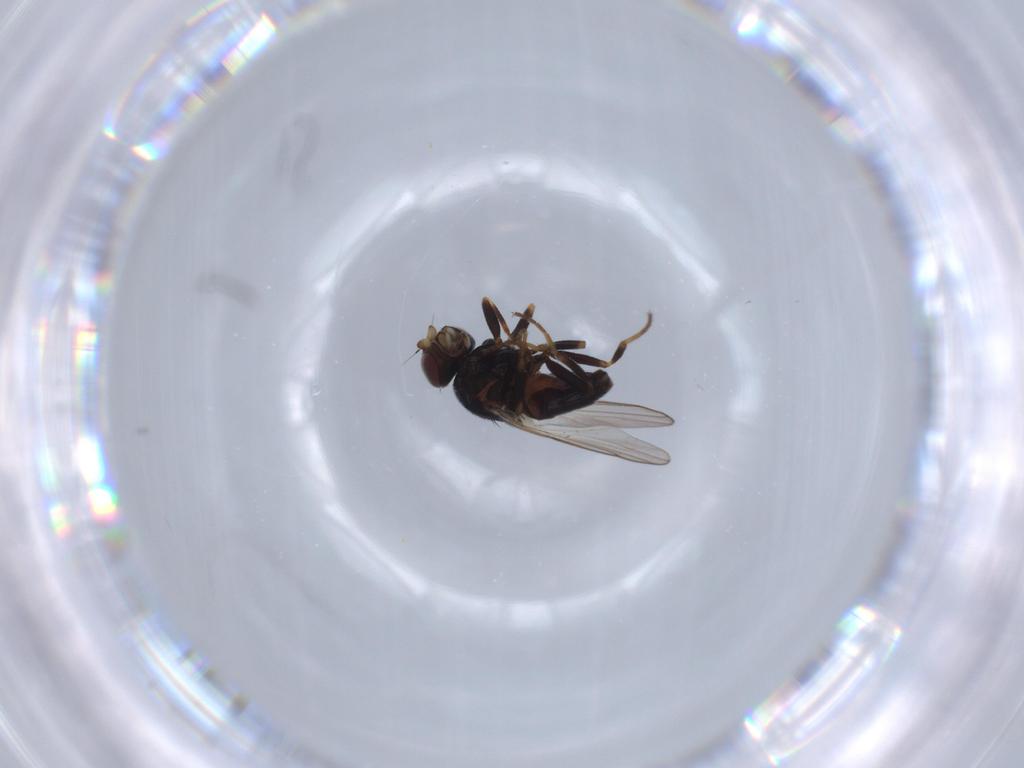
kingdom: Animalia
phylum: Arthropoda
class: Insecta
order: Diptera
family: Chloropidae
